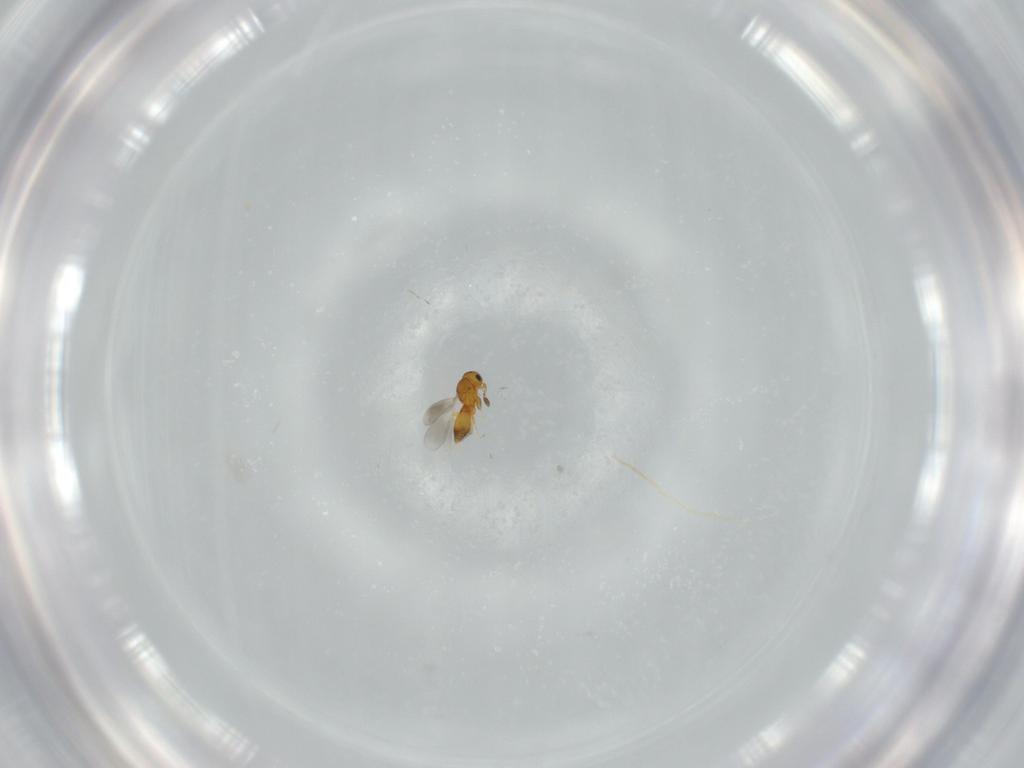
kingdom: Animalia
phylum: Arthropoda
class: Insecta
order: Hymenoptera
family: Platygastridae
